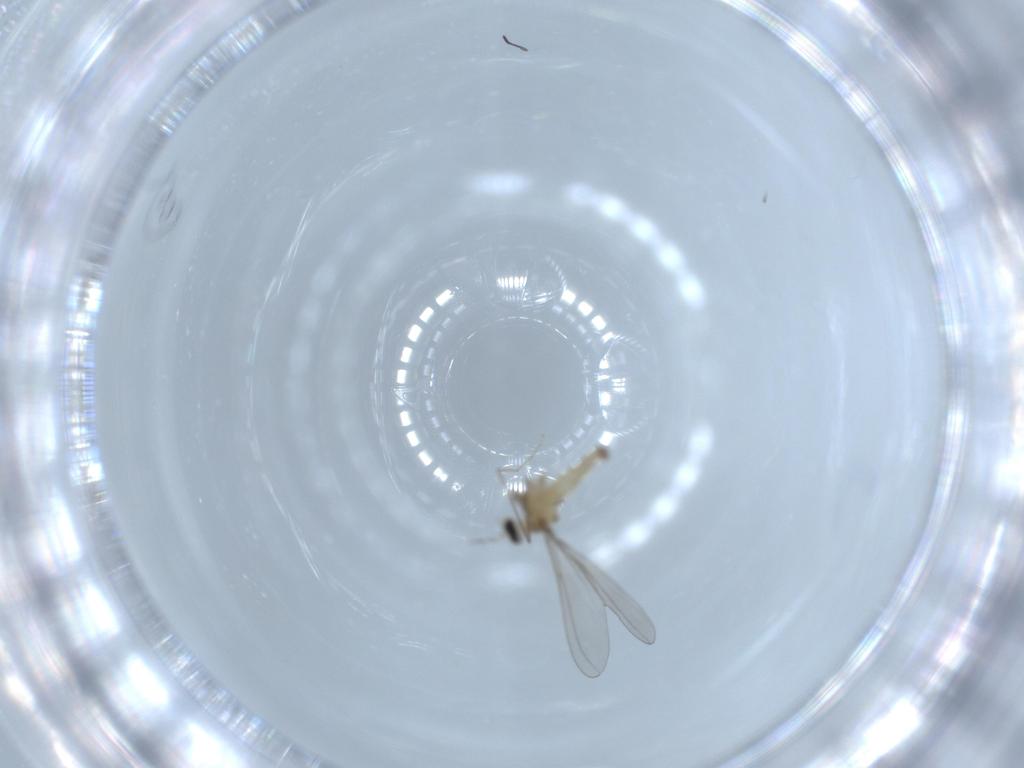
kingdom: Animalia
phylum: Arthropoda
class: Insecta
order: Diptera
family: Cecidomyiidae
